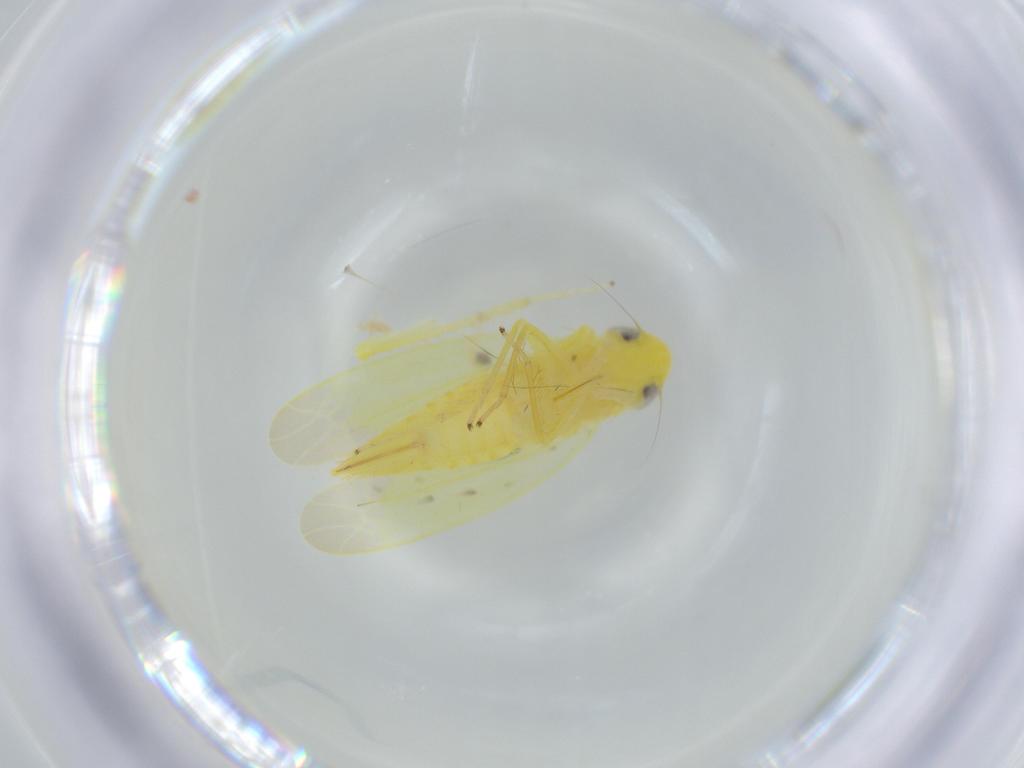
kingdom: Animalia
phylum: Arthropoda
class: Insecta
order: Hemiptera
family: Clastopteridae
